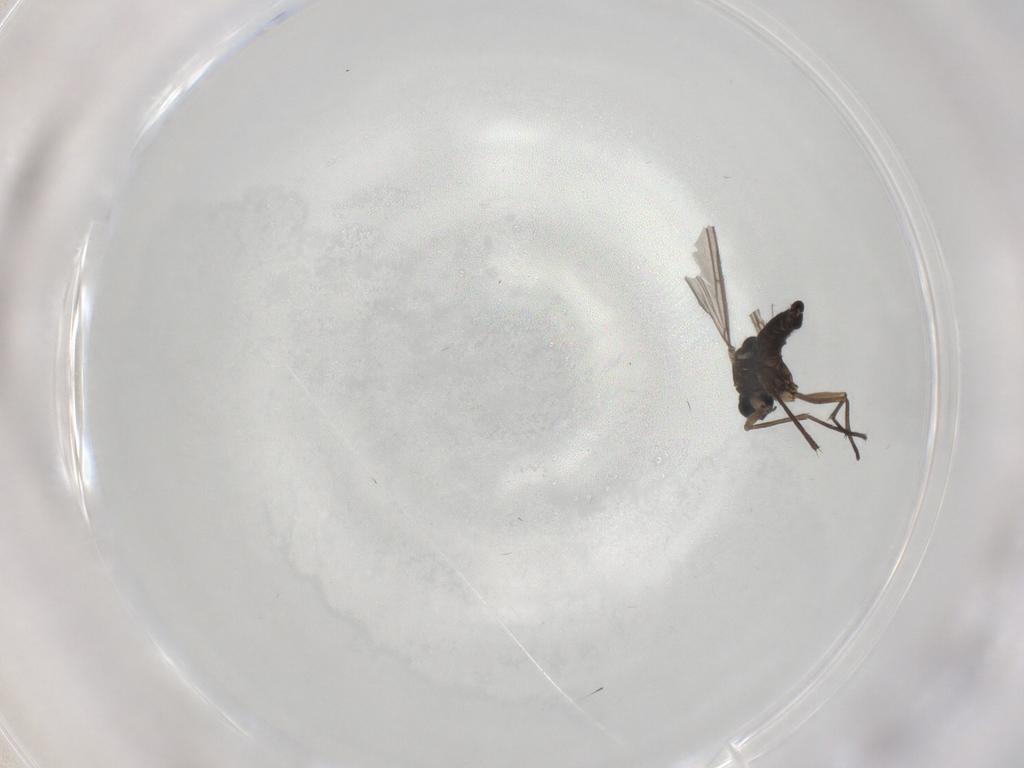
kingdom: Animalia
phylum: Arthropoda
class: Insecta
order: Diptera
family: Sciaridae
